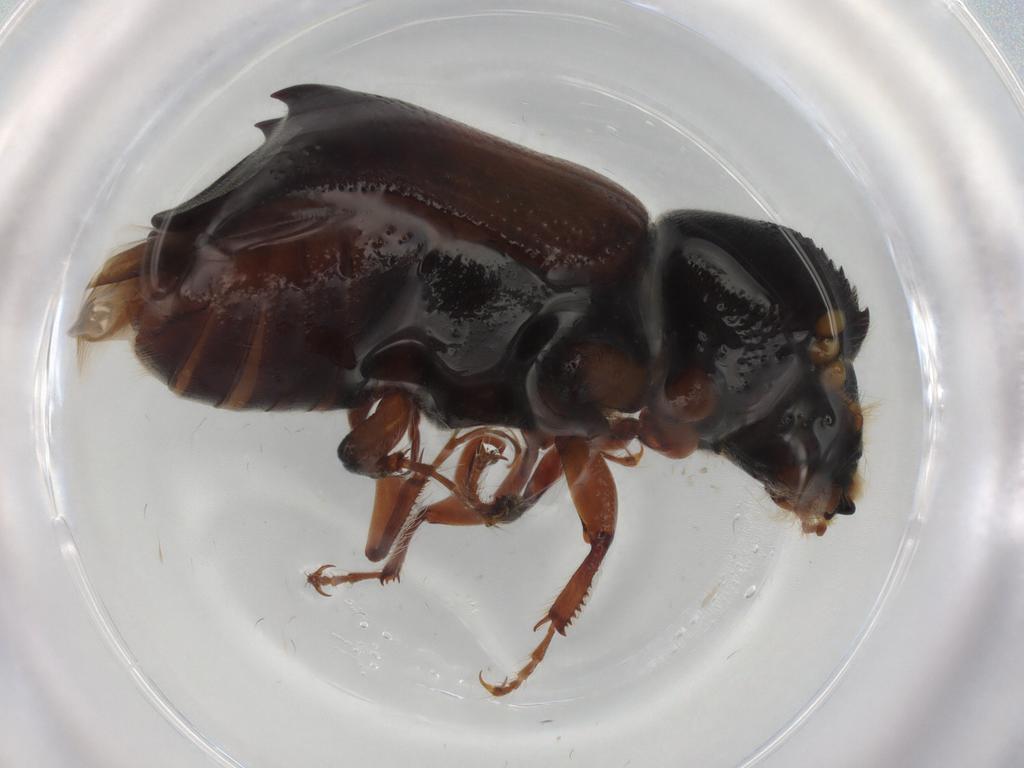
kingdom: Animalia
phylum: Arthropoda
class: Insecta
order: Coleoptera
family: Bostrichidae
